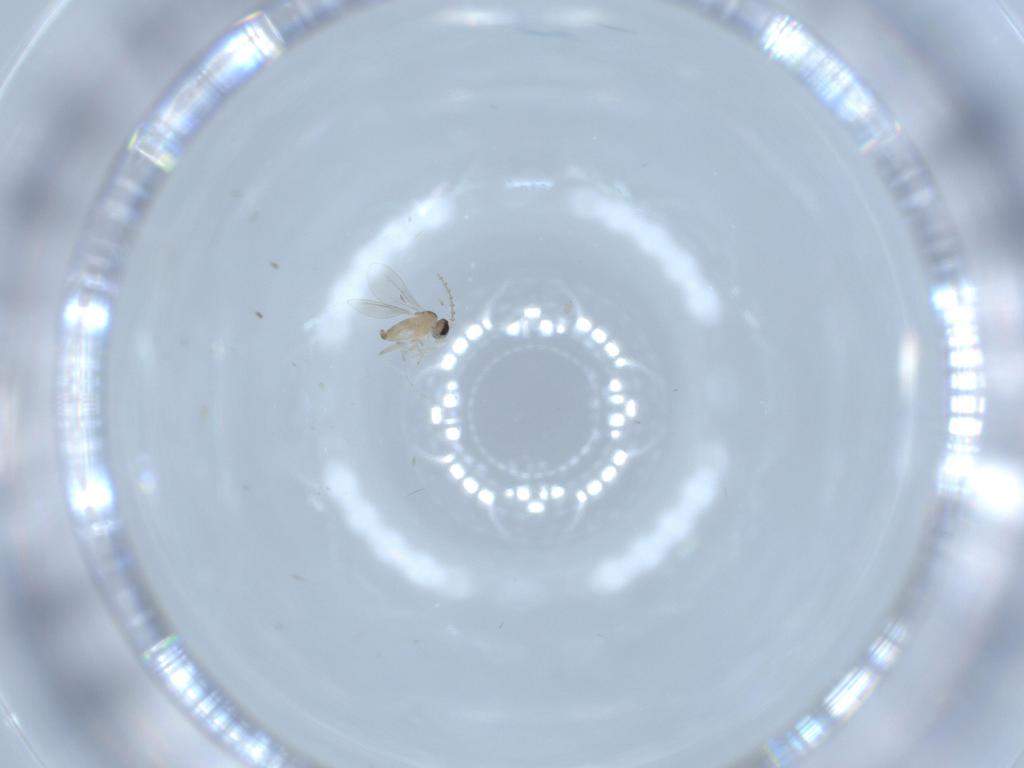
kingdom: Animalia
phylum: Arthropoda
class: Insecta
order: Diptera
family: Cecidomyiidae
